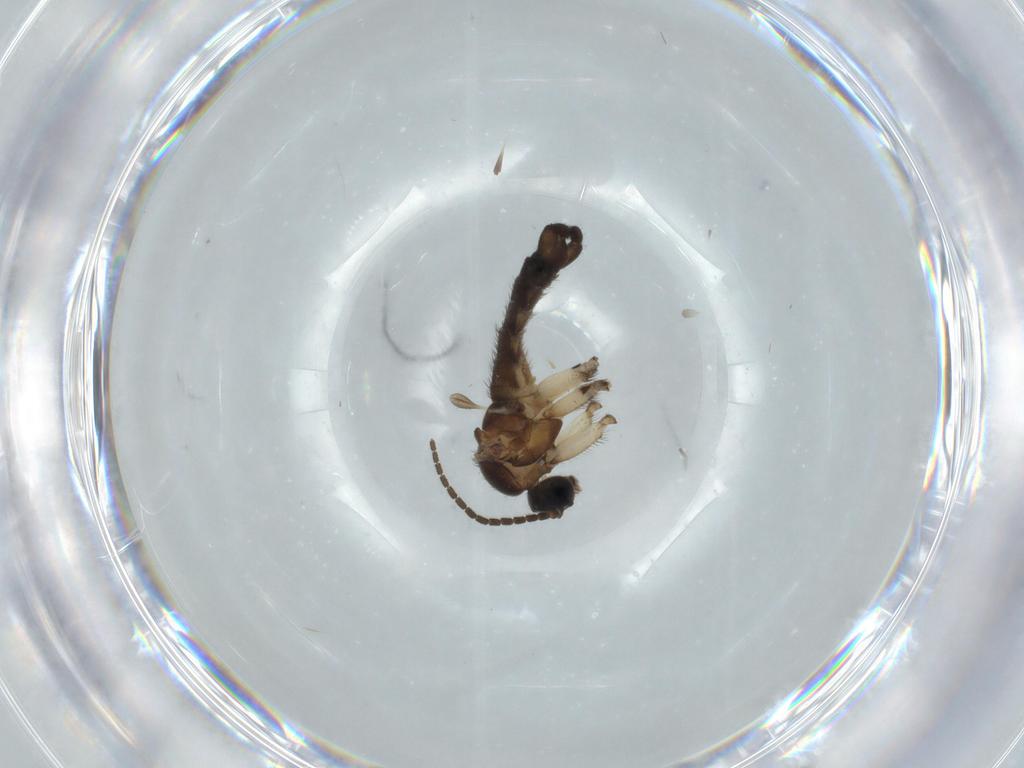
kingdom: Animalia
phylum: Arthropoda
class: Insecta
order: Diptera
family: Sciaridae
